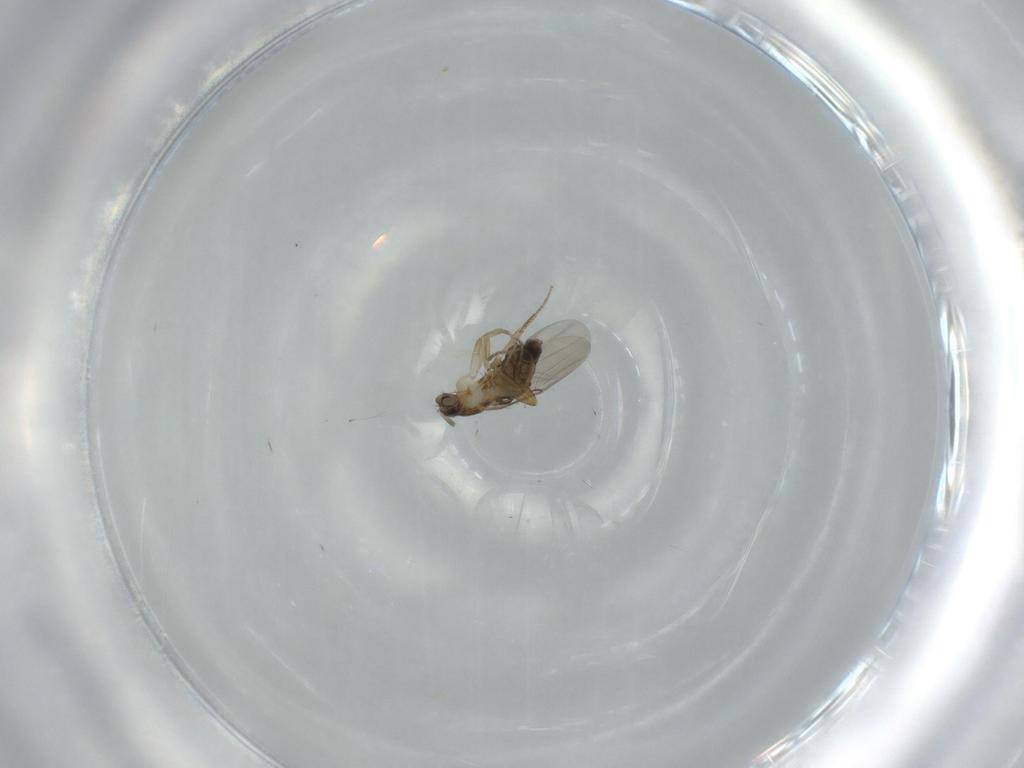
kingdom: Animalia
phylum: Arthropoda
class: Insecta
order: Diptera
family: Phoridae
